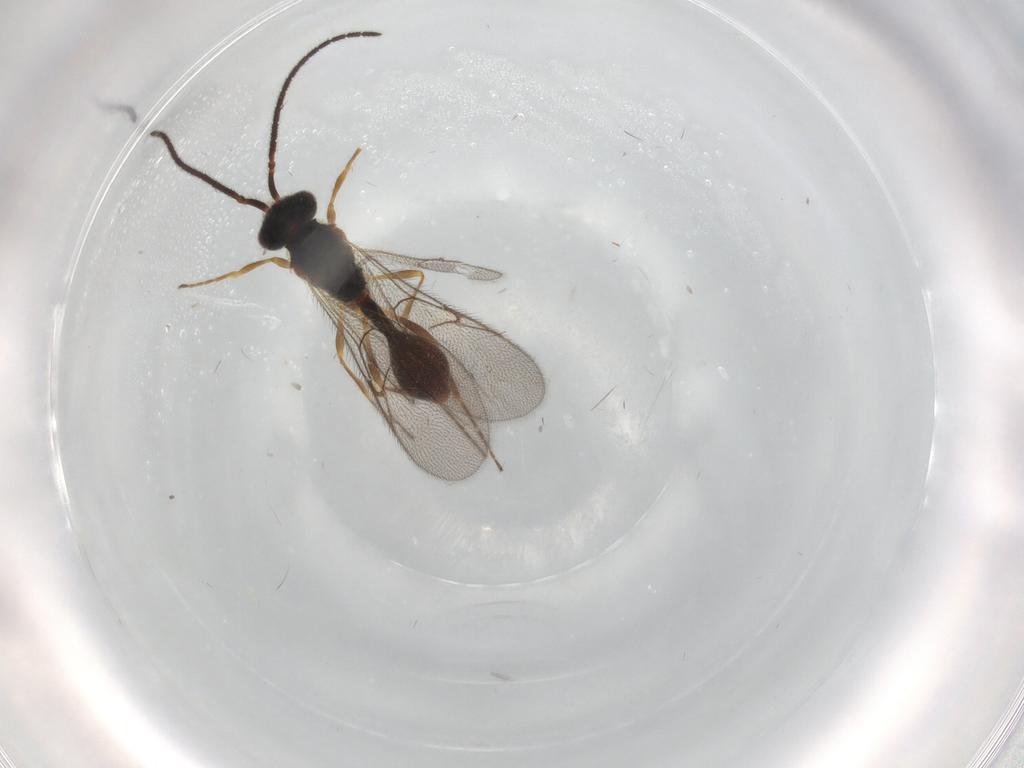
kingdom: Animalia
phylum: Arthropoda
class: Insecta
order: Hymenoptera
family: Diapriidae
